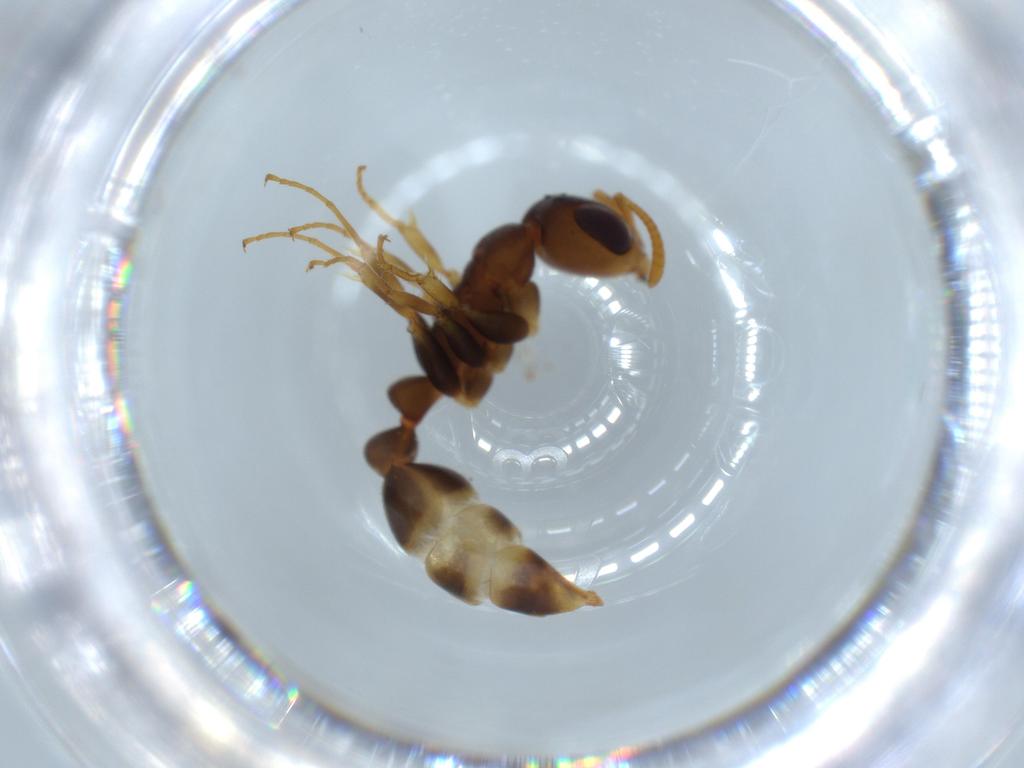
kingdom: Animalia
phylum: Arthropoda
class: Insecta
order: Hymenoptera
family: Formicidae
